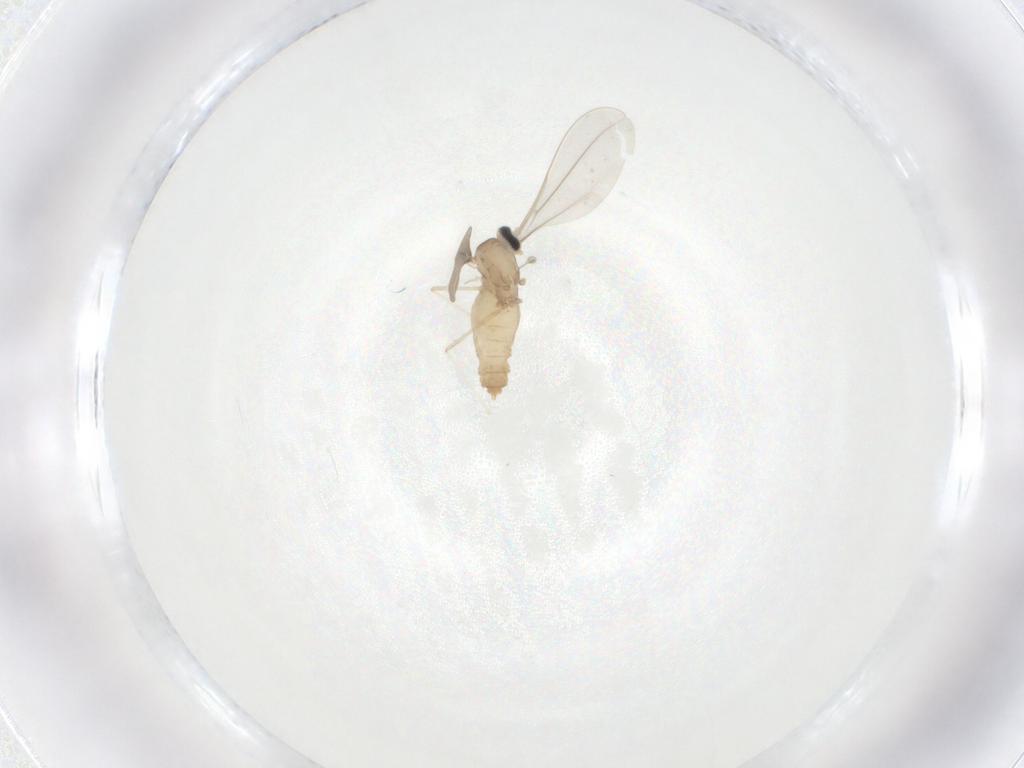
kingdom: Animalia
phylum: Arthropoda
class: Insecta
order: Diptera
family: Cecidomyiidae
